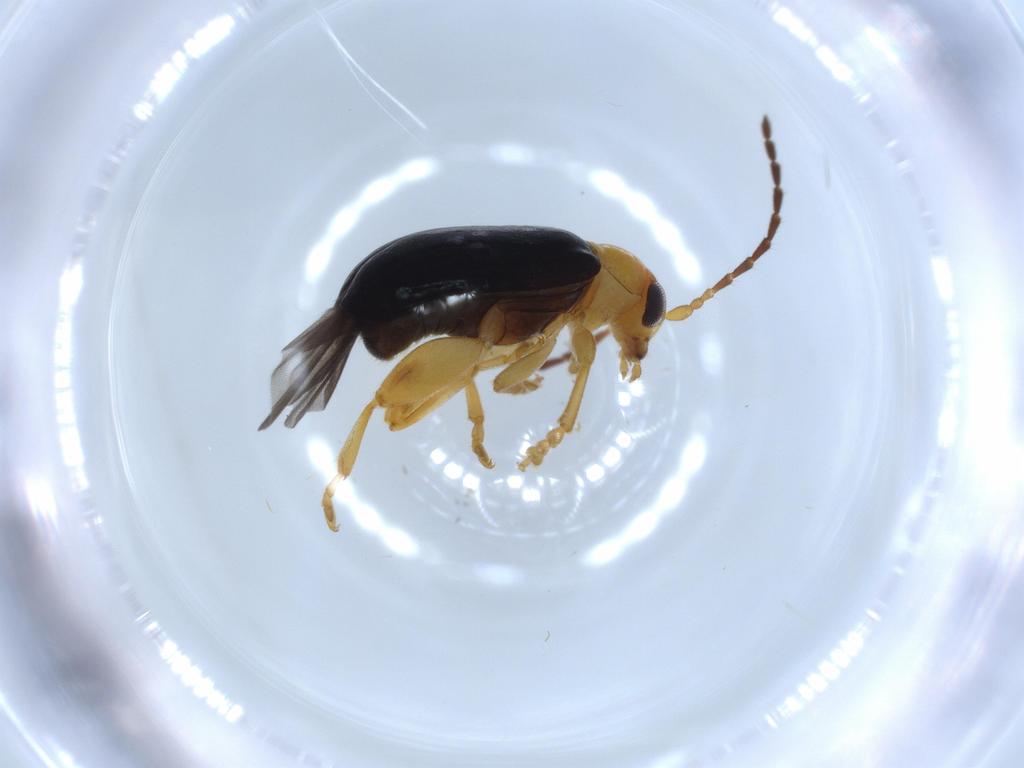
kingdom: Animalia
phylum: Arthropoda
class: Insecta
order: Coleoptera
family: Chrysomelidae
